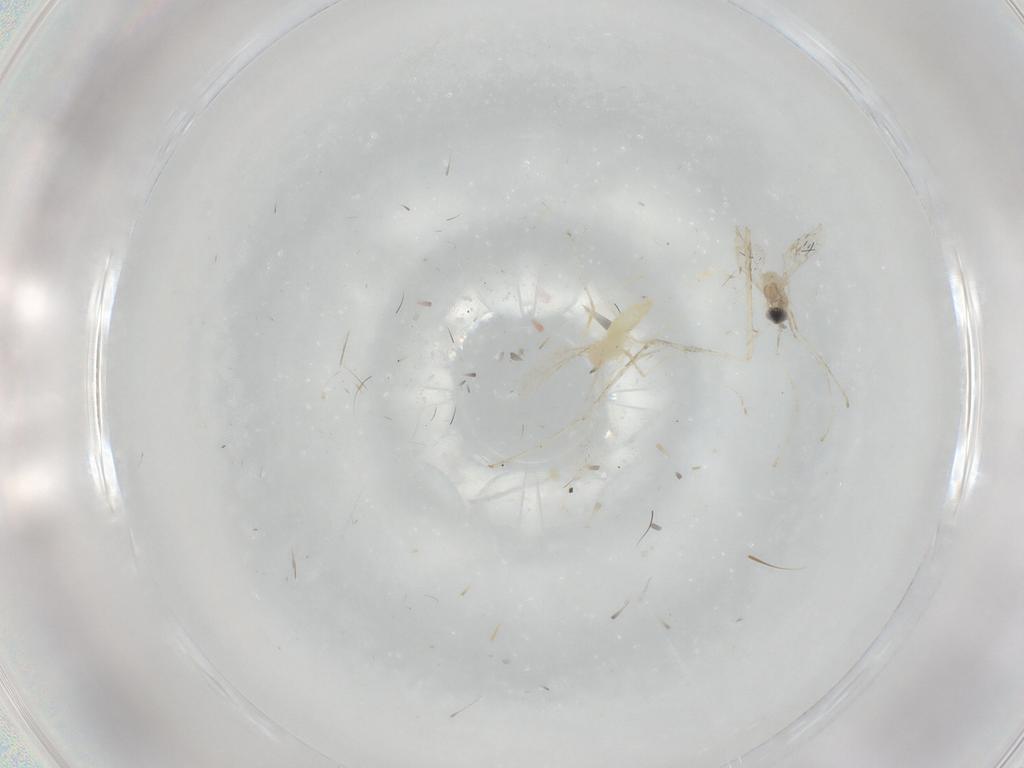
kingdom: Animalia
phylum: Arthropoda
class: Insecta
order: Diptera
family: Cecidomyiidae
